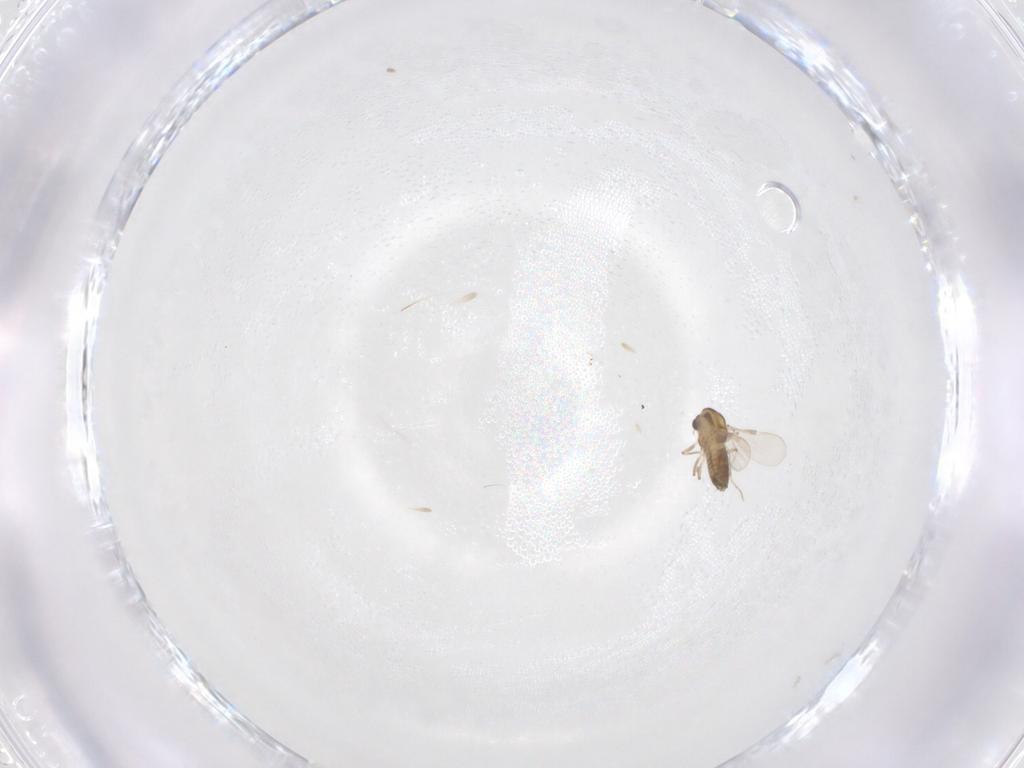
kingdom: Animalia
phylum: Arthropoda
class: Insecta
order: Diptera
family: Chironomidae
